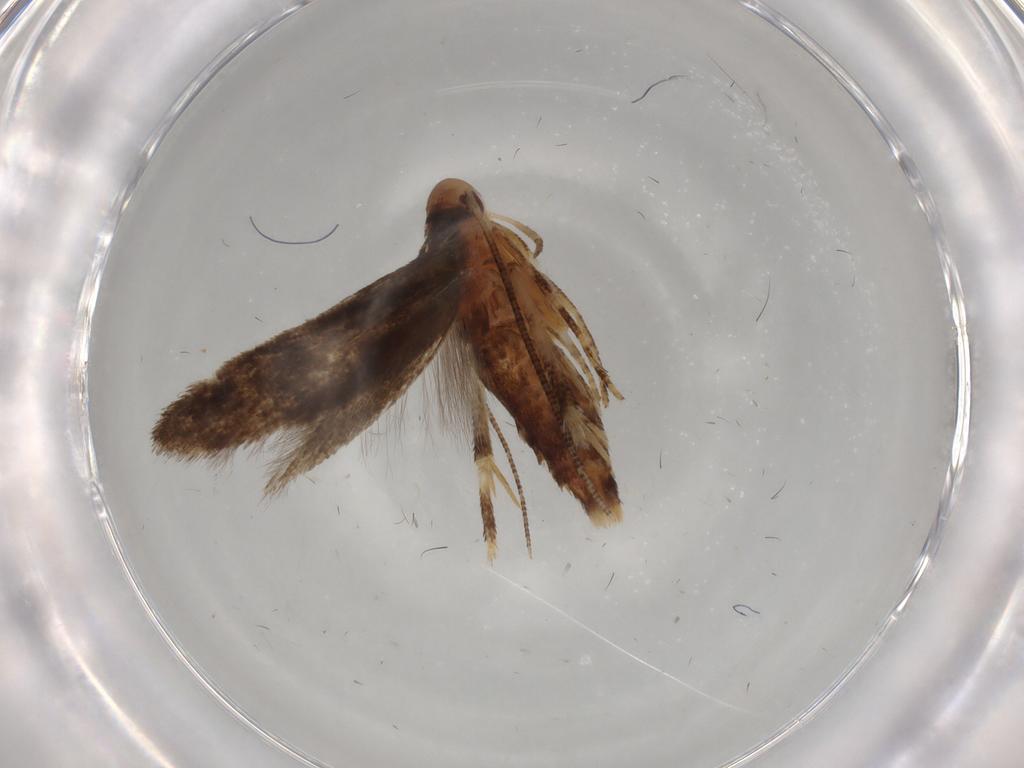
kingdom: Animalia
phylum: Arthropoda
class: Insecta
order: Lepidoptera
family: Momphidae
